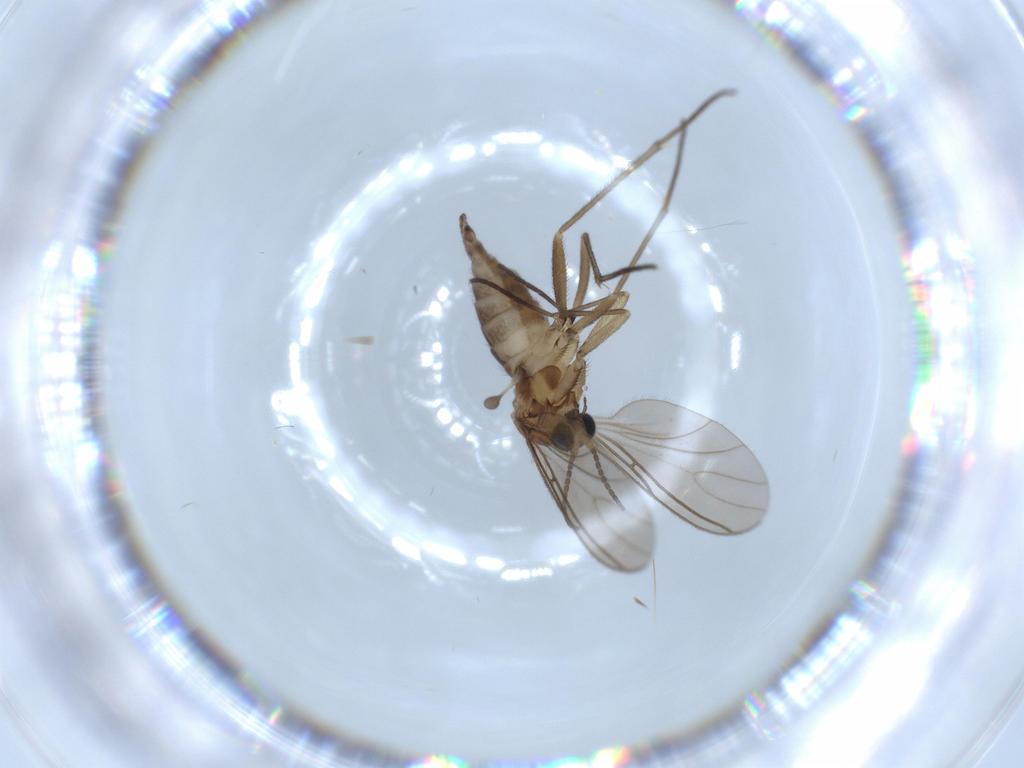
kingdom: Animalia
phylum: Arthropoda
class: Insecta
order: Diptera
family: Sciaridae
